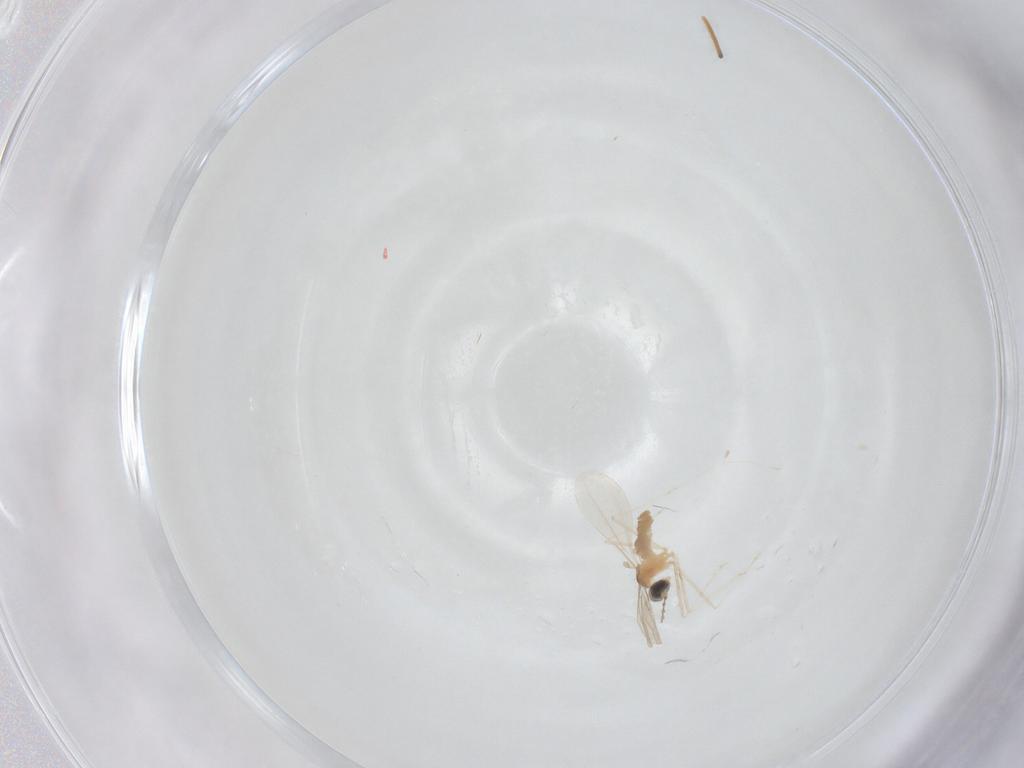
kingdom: Animalia
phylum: Arthropoda
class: Insecta
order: Diptera
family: Cecidomyiidae
